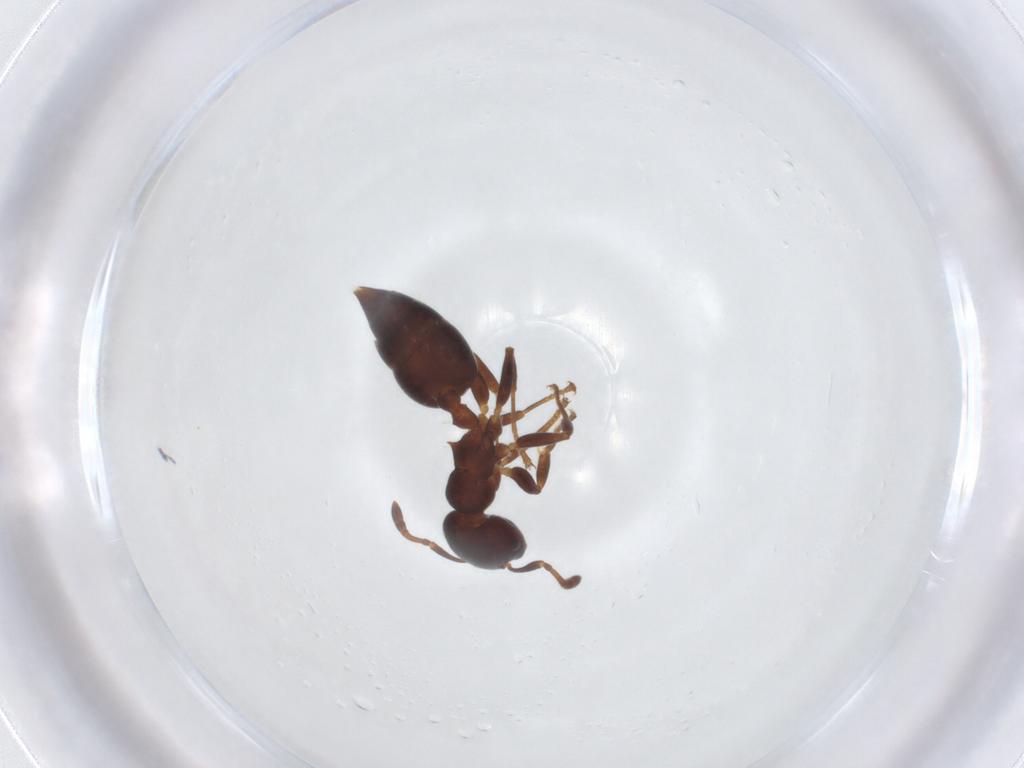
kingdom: Animalia
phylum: Arthropoda
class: Insecta
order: Hymenoptera
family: Formicidae
